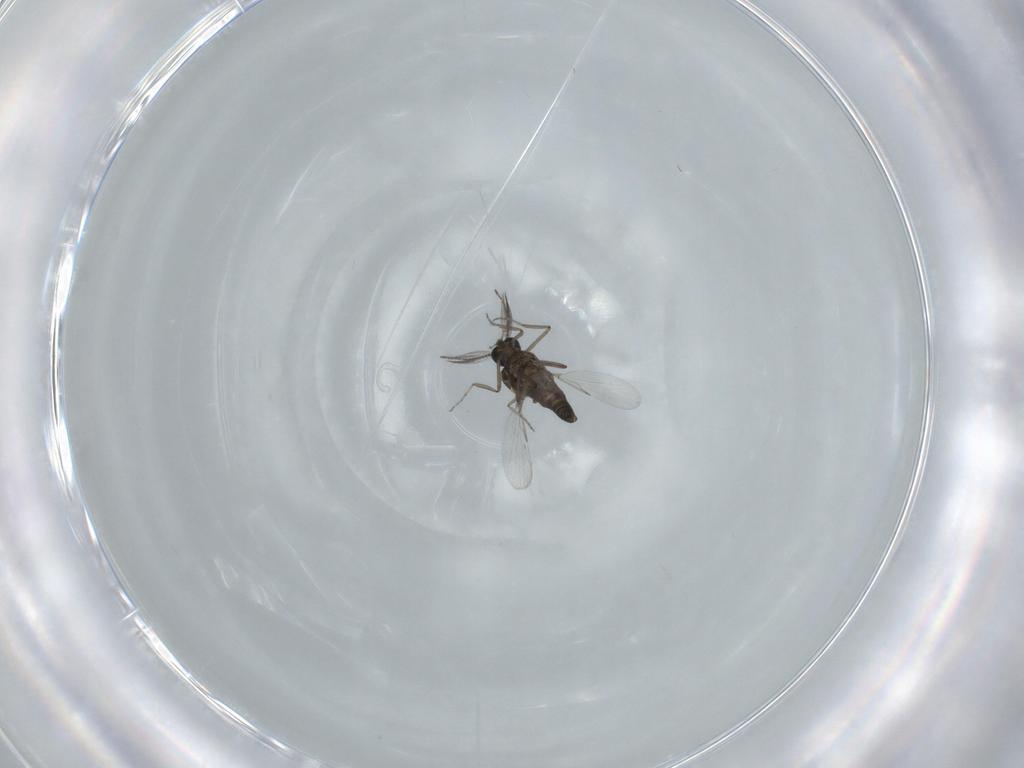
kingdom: Animalia
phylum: Arthropoda
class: Insecta
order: Diptera
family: Ceratopogonidae
